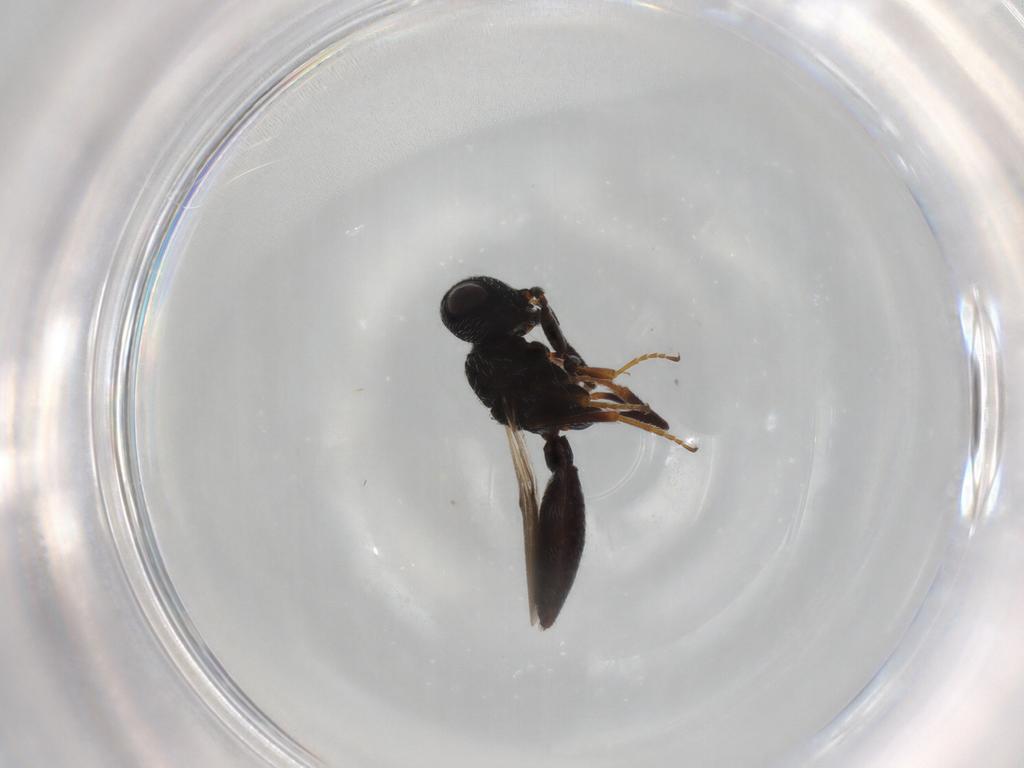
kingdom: Animalia
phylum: Arthropoda
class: Insecta
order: Hymenoptera
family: Scelionidae
